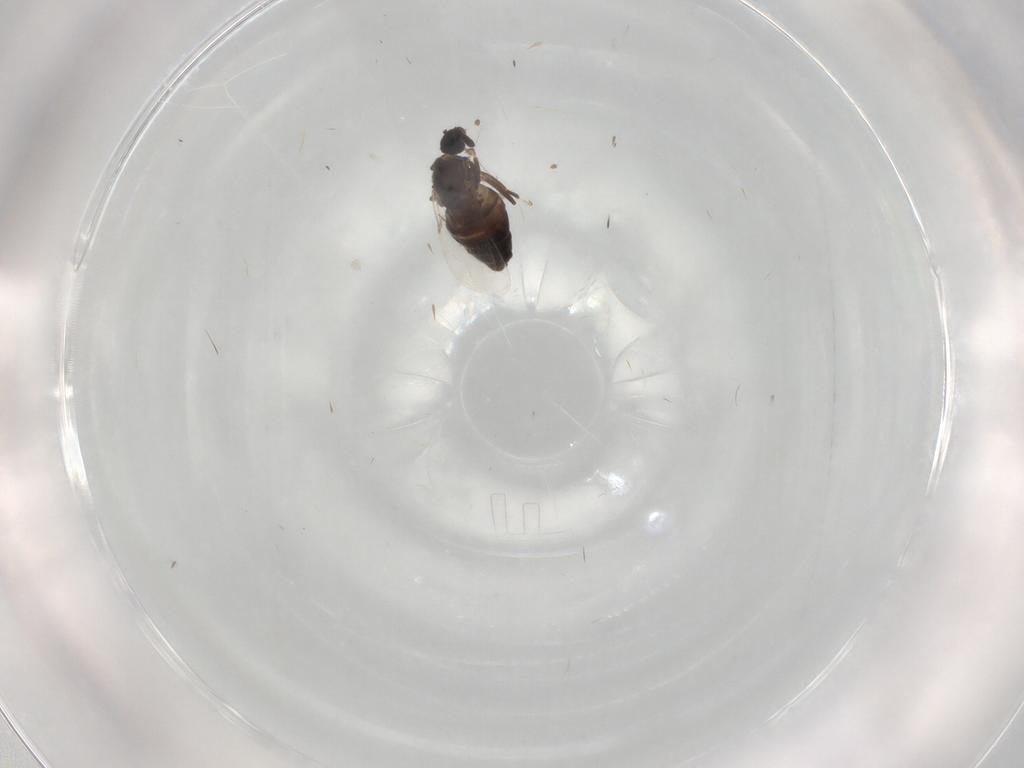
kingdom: Animalia
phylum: Arthropoda
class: Insecta
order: Diptera
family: Scatopsidae
